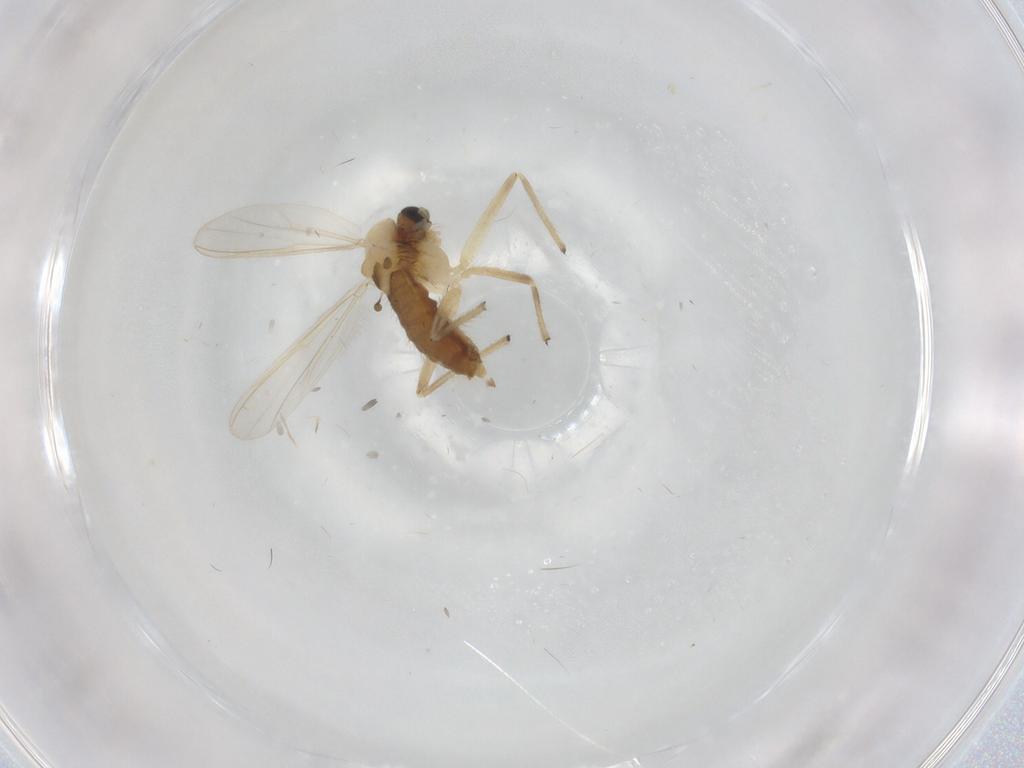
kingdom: Animalia
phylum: Arthropoda
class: Insecta
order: Diptera
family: Chironomidae
